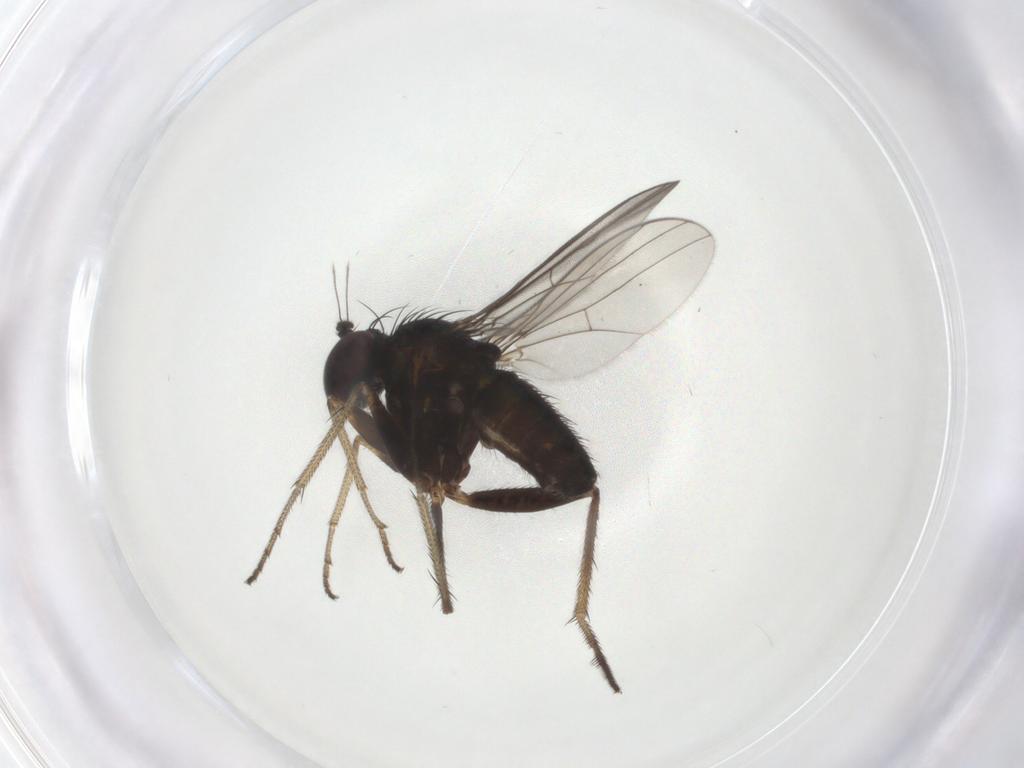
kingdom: Animalia
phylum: Arthropoda
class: Insecta
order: Diptera
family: Dolichopodidae
